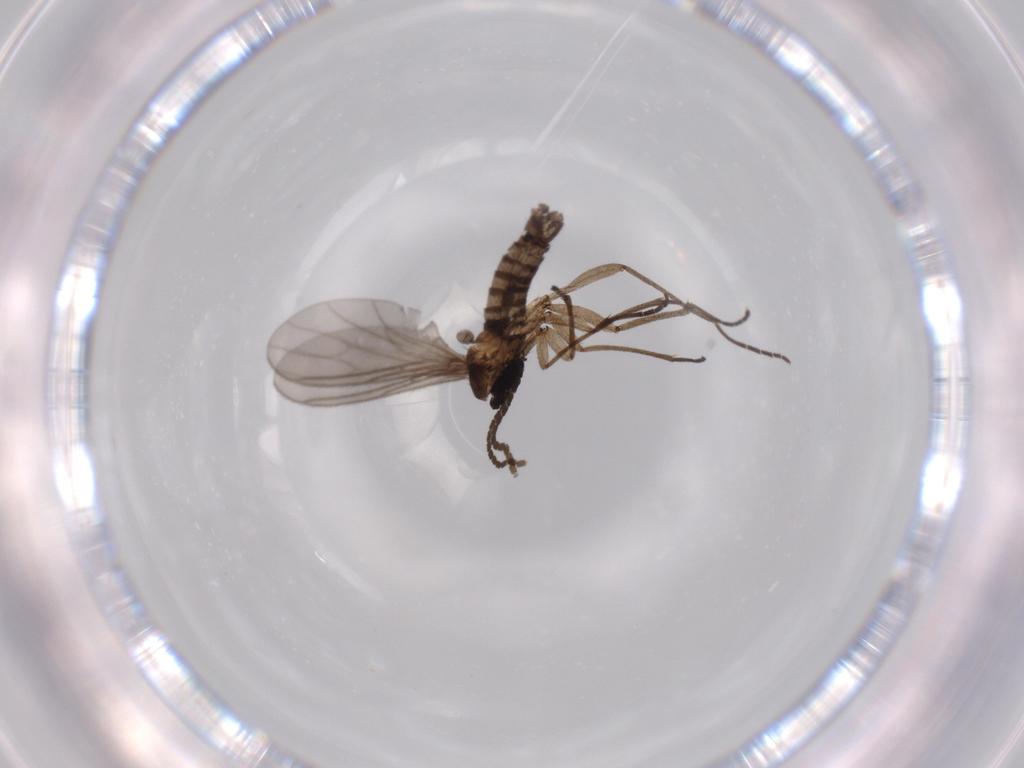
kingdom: Animalia
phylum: Arthropoda
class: Insecta
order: Diptera
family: Sciaridae
